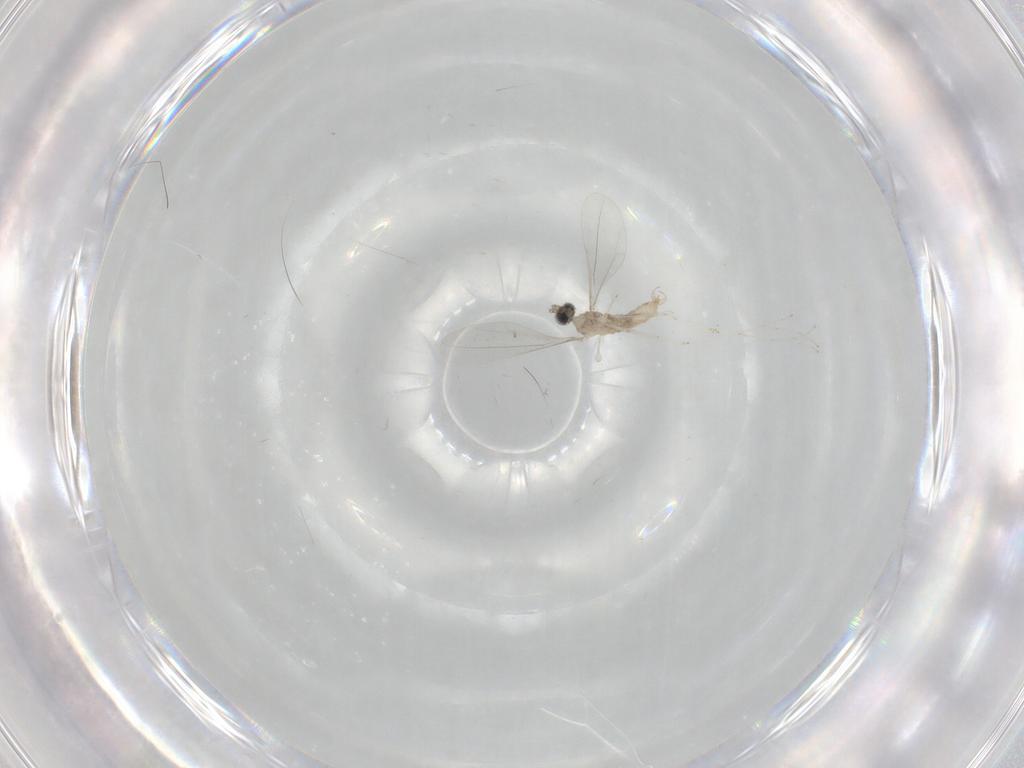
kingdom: Animalia
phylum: Arthropoda
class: Insecta
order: Diptera
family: Cecidomyiidae
